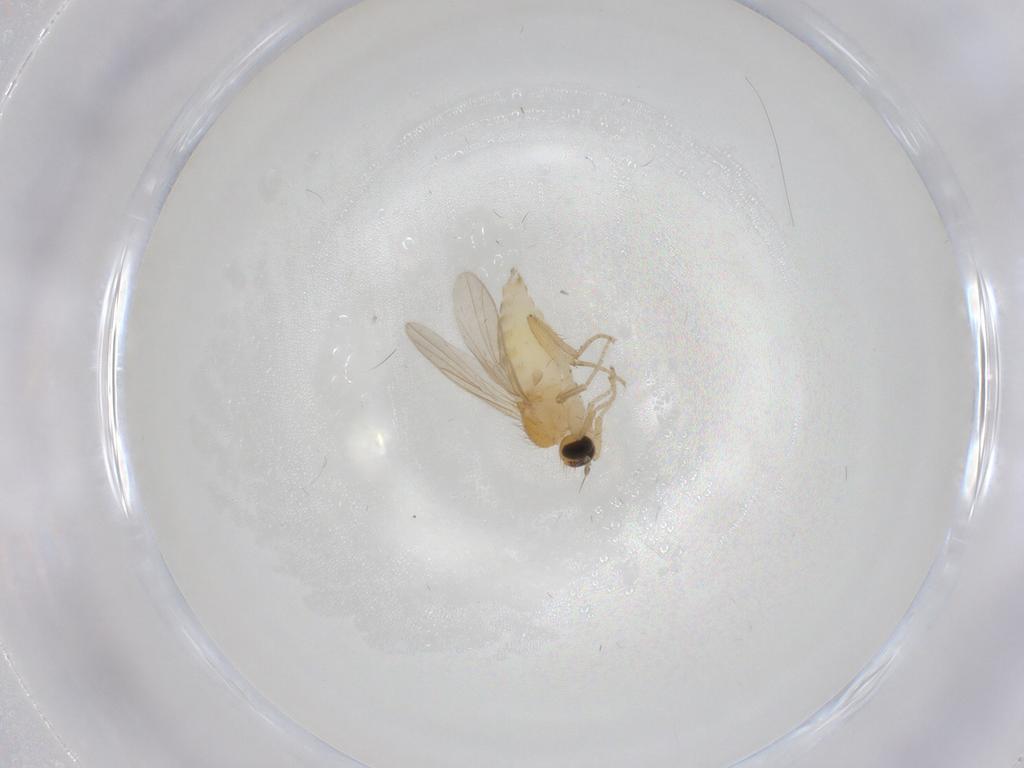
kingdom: Animalia
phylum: Arthropoda
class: Insecta
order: Diptera
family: Hybotidae
